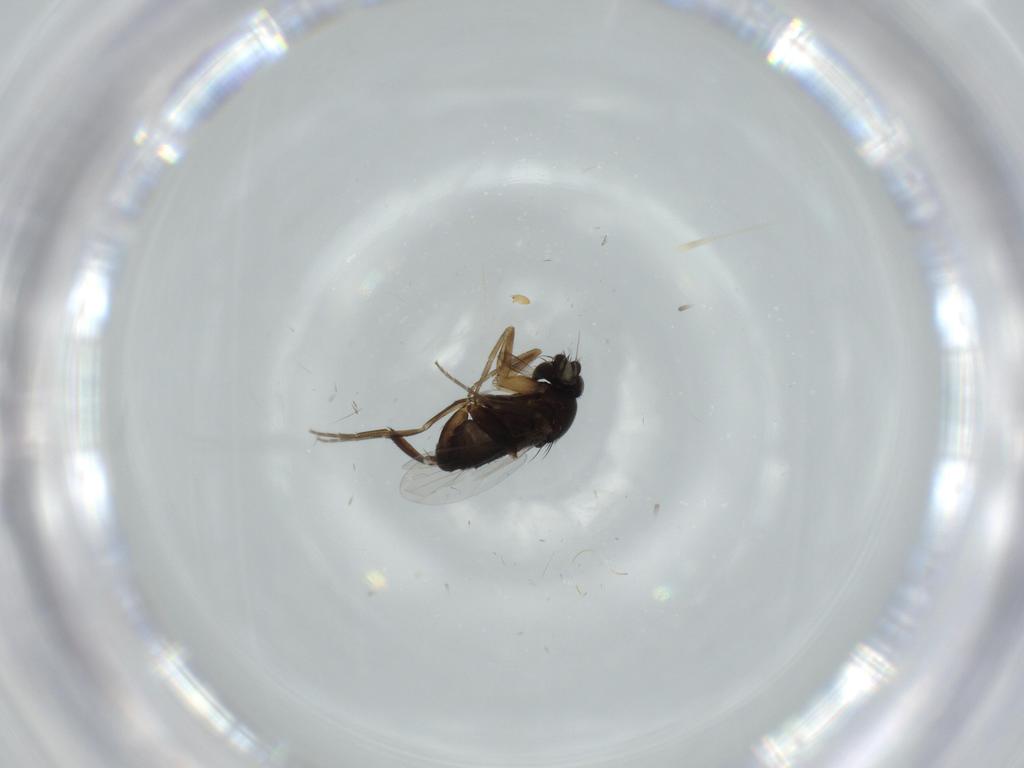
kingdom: Animalia
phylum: Arthropoda
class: Insecta
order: Diptera
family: Phoridae
